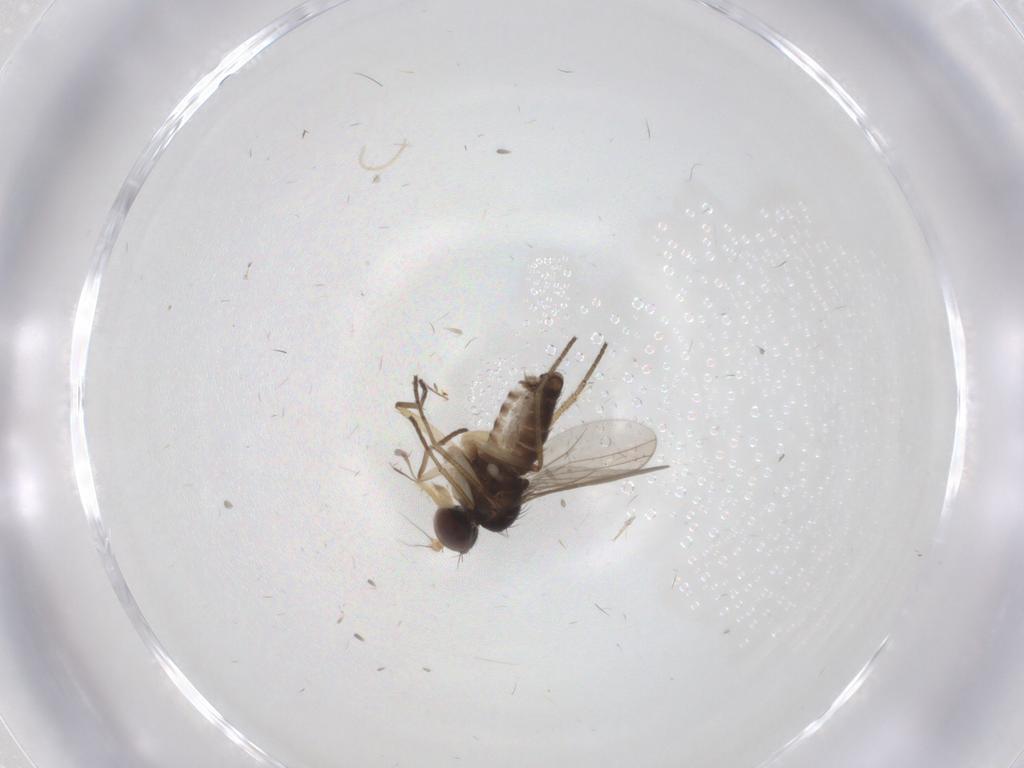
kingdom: Animalia
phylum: Arthropoda
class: Insecta
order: Diptera
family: Dolichopodidae
